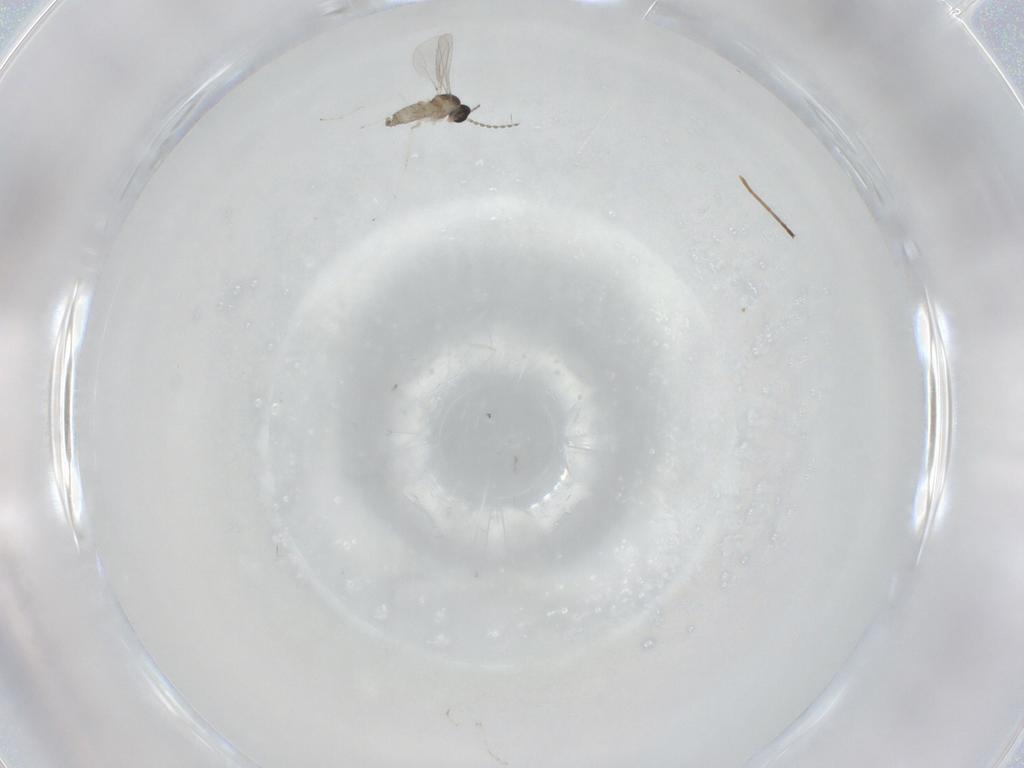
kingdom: Animalia
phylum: Arthropoda
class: Insecta
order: Diptera
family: Cecidomyiidae
